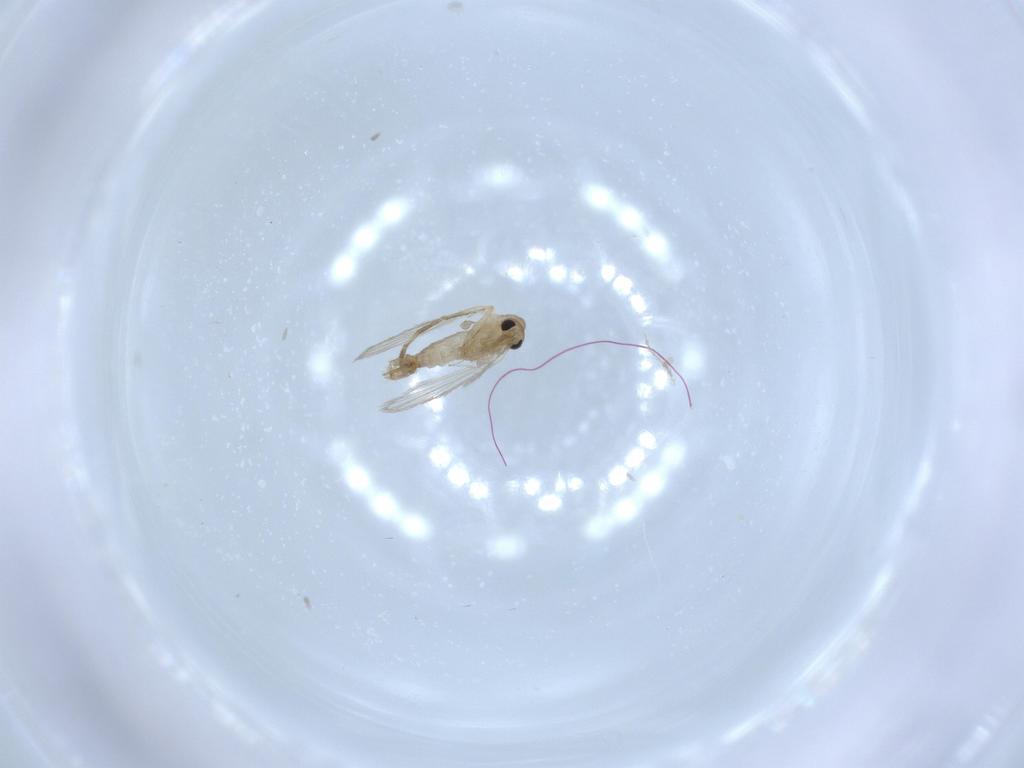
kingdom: Animalia
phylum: Arthropoda
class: Insecta
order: Diptera
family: Psychodidae
